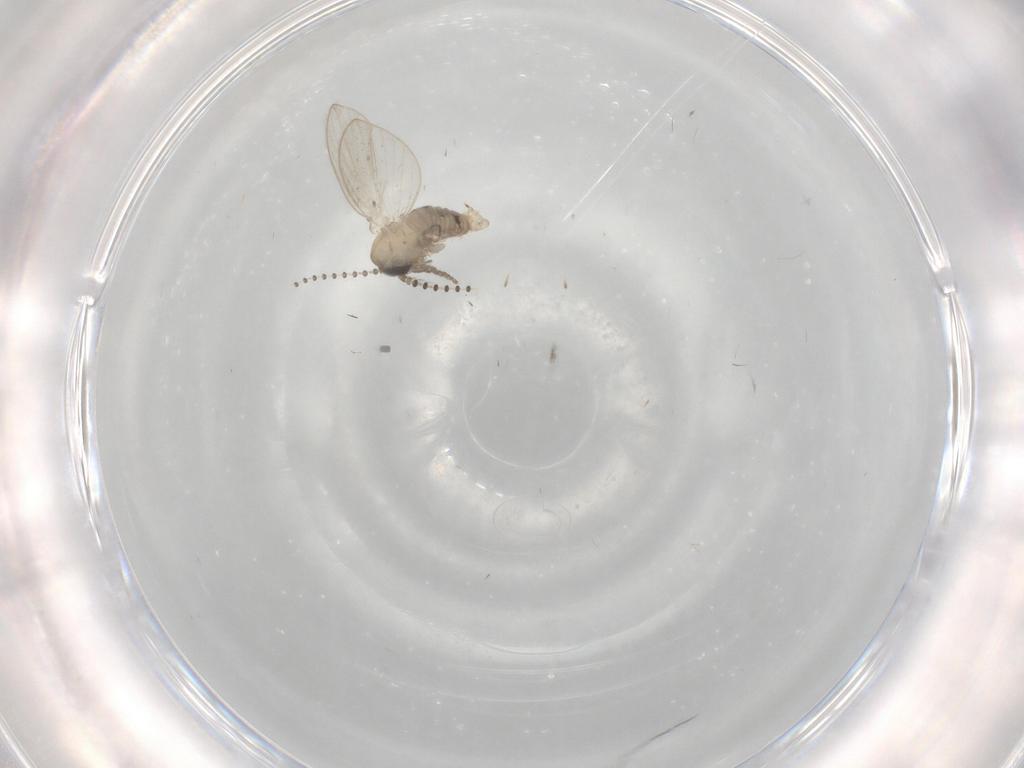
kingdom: Animalia
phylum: Arthropoda
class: Insecta
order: Diptera
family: Psychodidae
